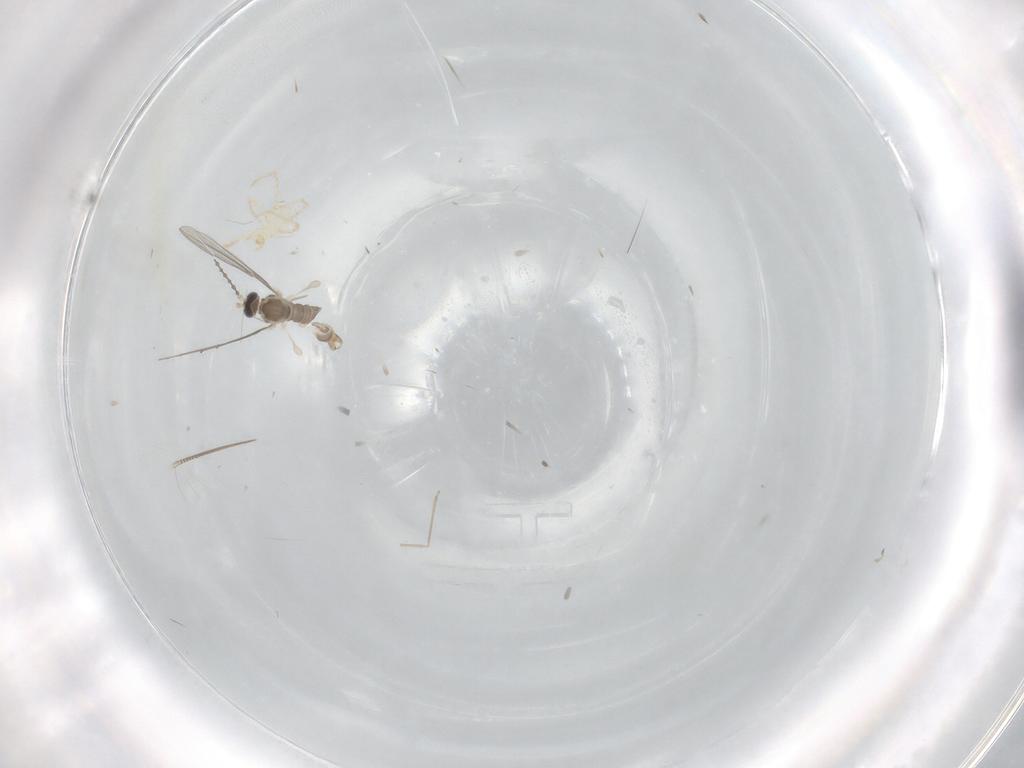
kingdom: Animalia
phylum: Arthropoda
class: Insecta
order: Diptera
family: Cecidomyiidae
